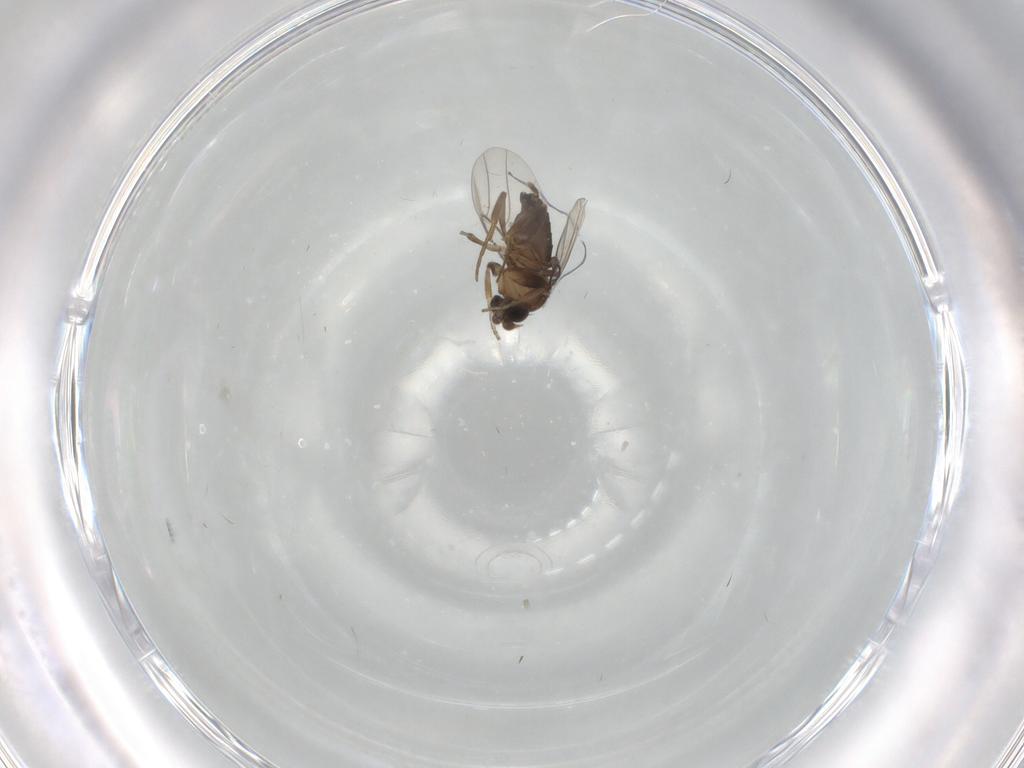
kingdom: Animalia
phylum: Arthropoda
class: Insecta
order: Diptera
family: Phoridae
